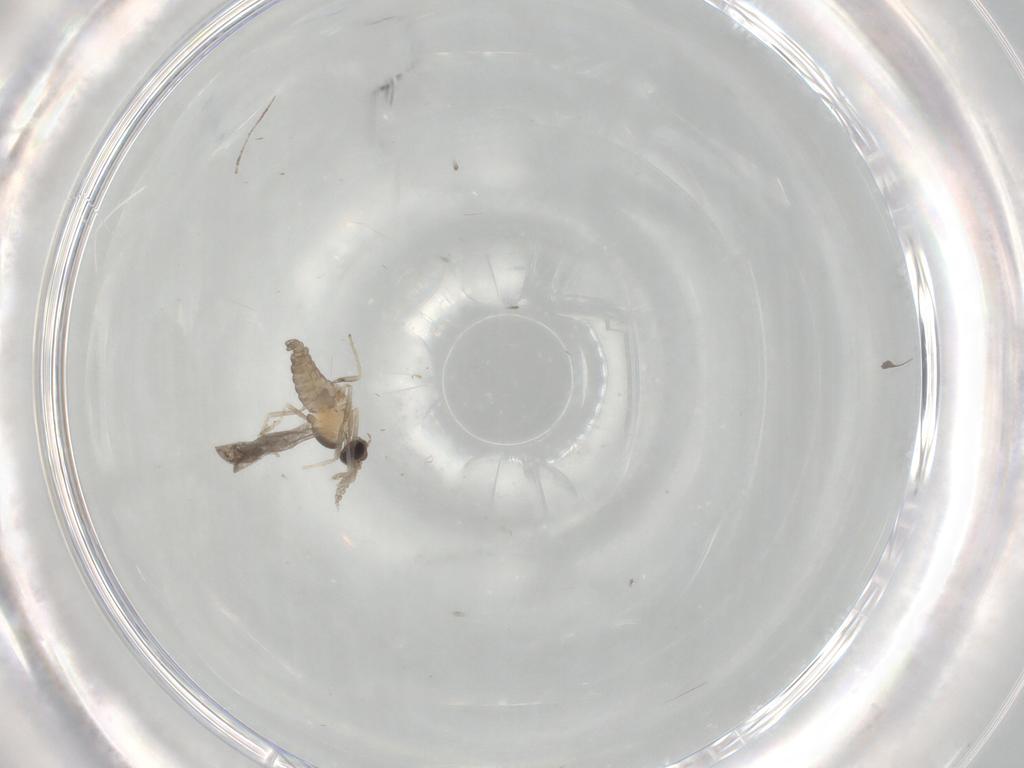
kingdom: Animalia
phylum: Arthropoda
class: Insecta
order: Diptera
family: Cecidomyiidae
